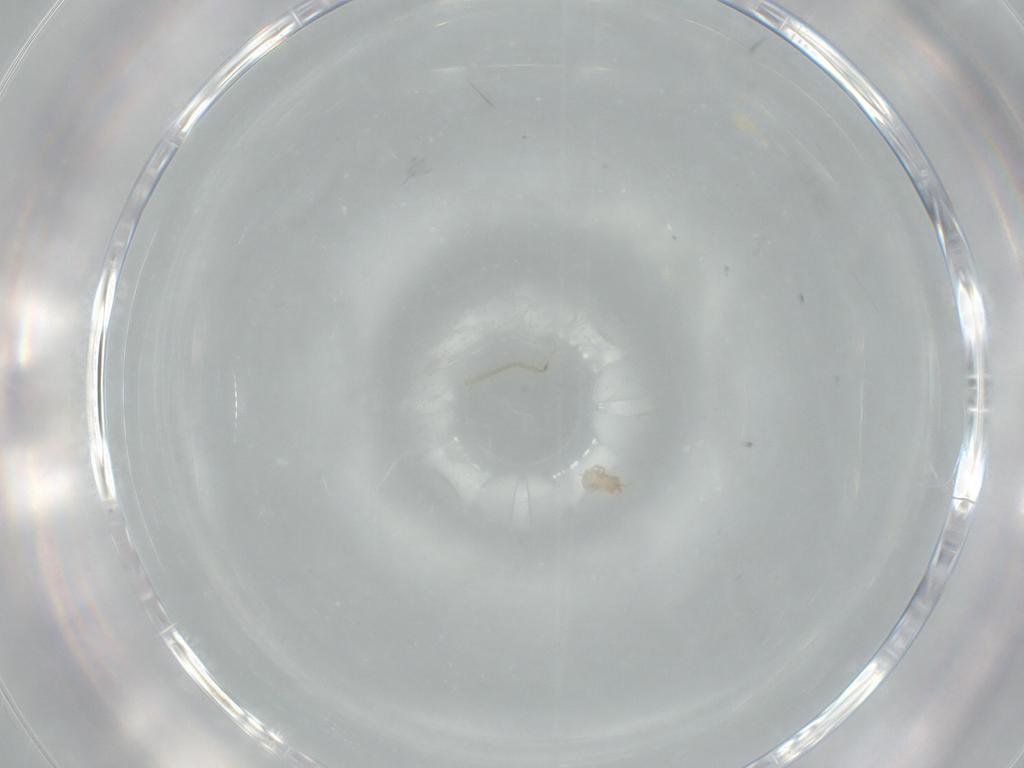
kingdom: Animalia
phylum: Arthropoda
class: Arachnida
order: Mesostigmata
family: Digamasellidae
